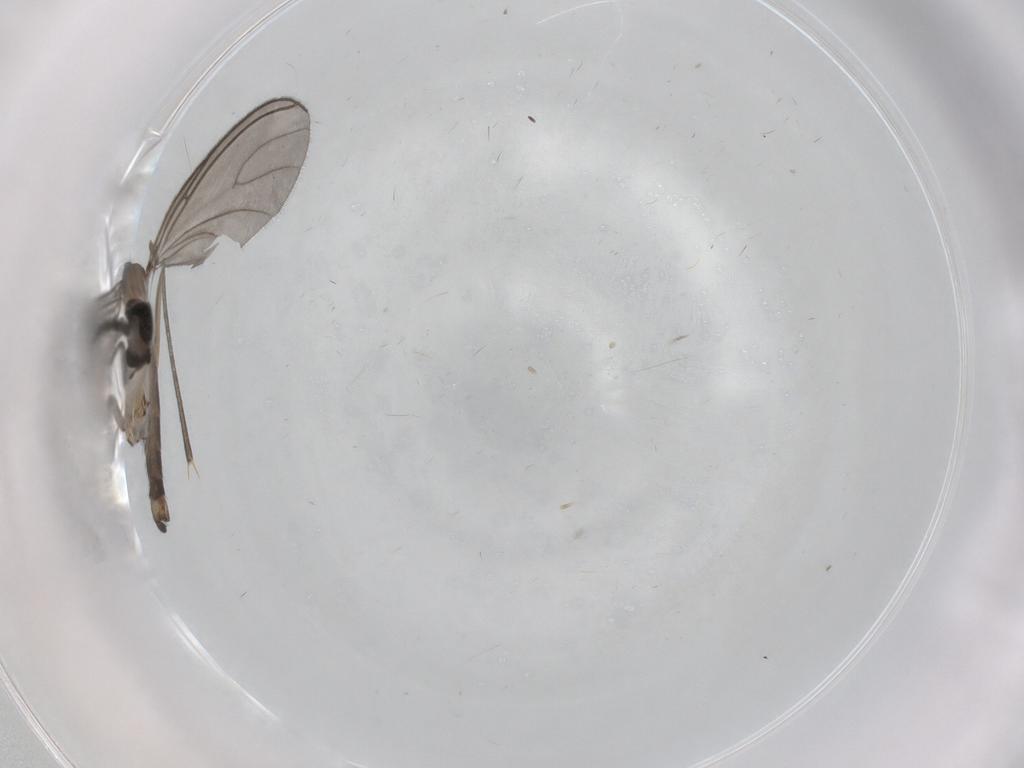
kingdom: Animalia
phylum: Arthropoda
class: Insecta
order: Diptera
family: Sciaridae
